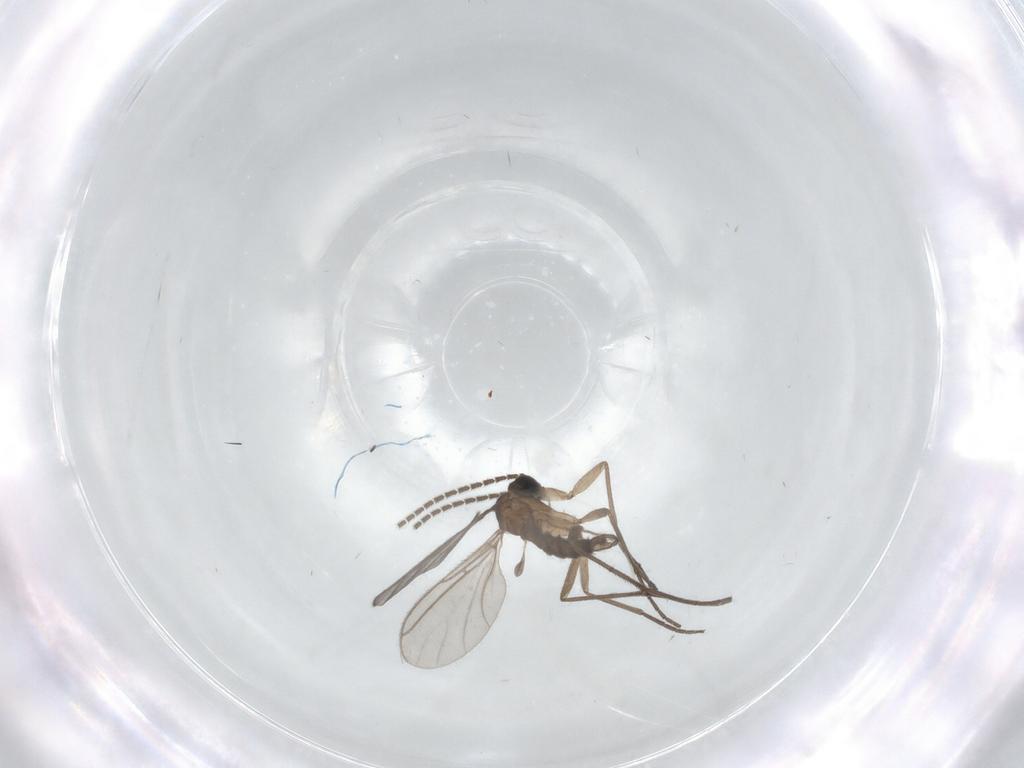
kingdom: Animalia
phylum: Arthropoda
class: Insecta
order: Diptera
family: Sciaridae
